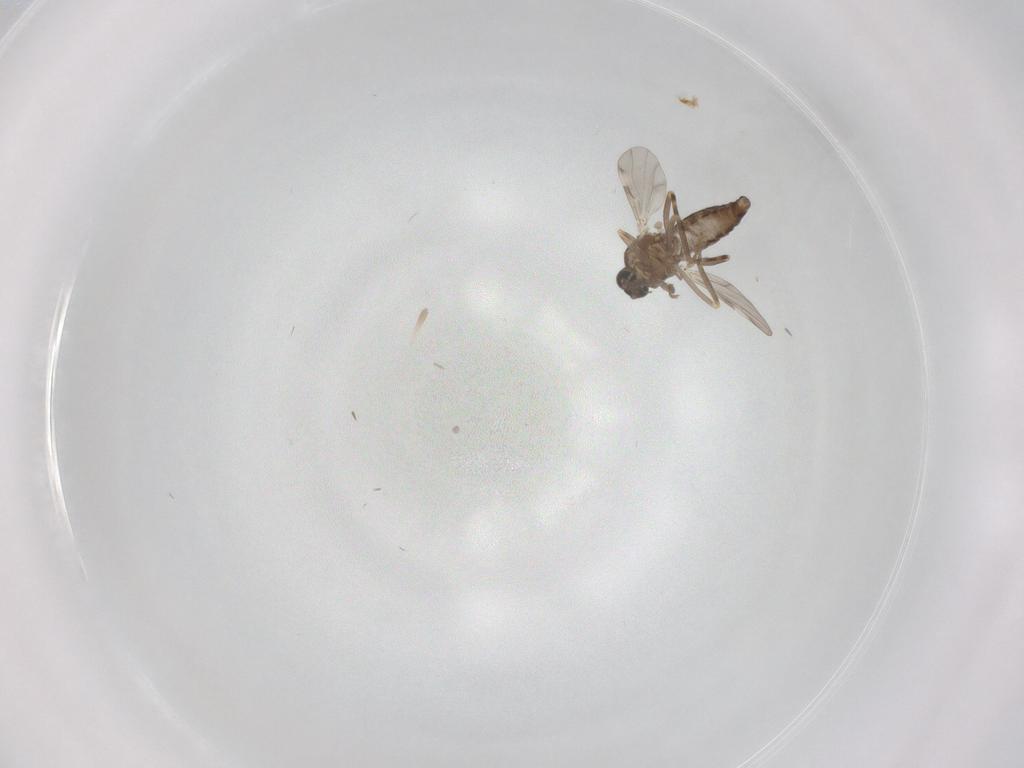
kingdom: Animalia
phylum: Arthropoda
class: Insecta
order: Diptera
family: Ceratopogonidae
